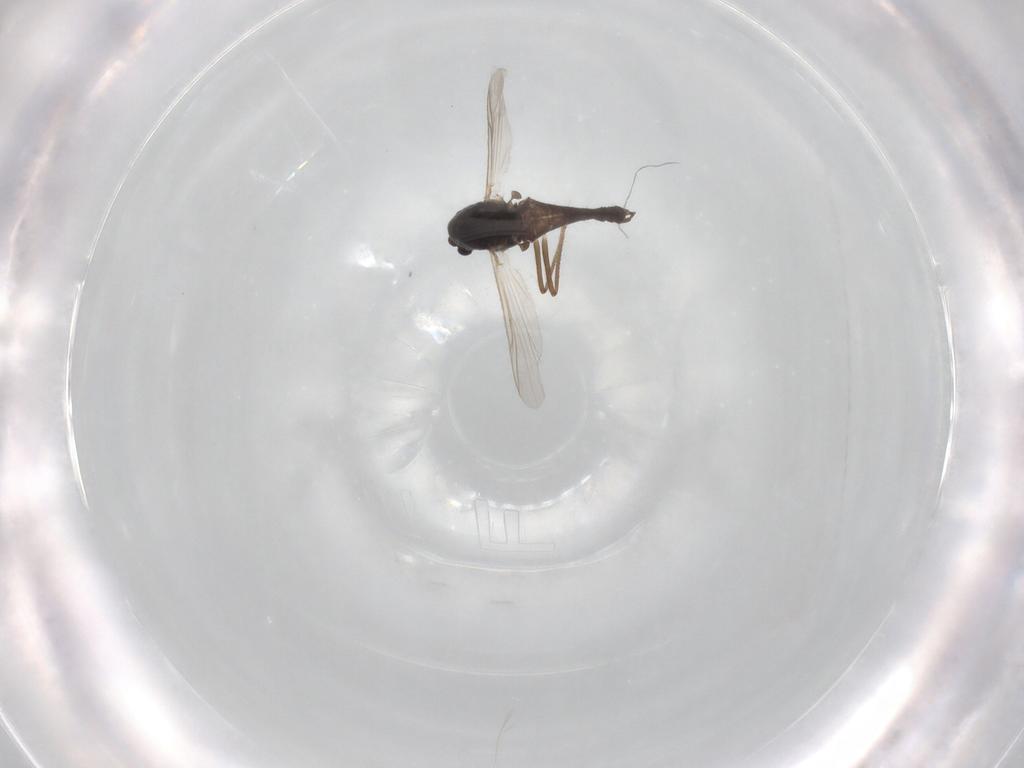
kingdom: Animalia
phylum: Arthropoda
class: Insecta
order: Diptera
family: Chironomidae
